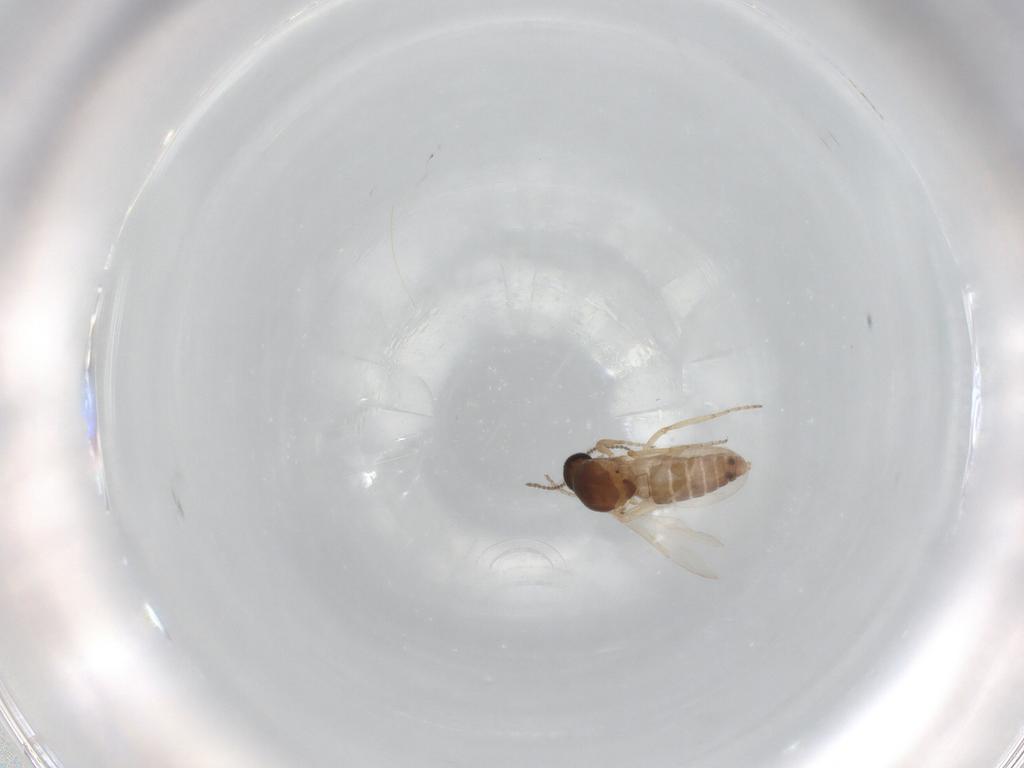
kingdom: Animalia
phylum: Arthropoda
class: Insecta
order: Diptera
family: Ceratopogonidae
